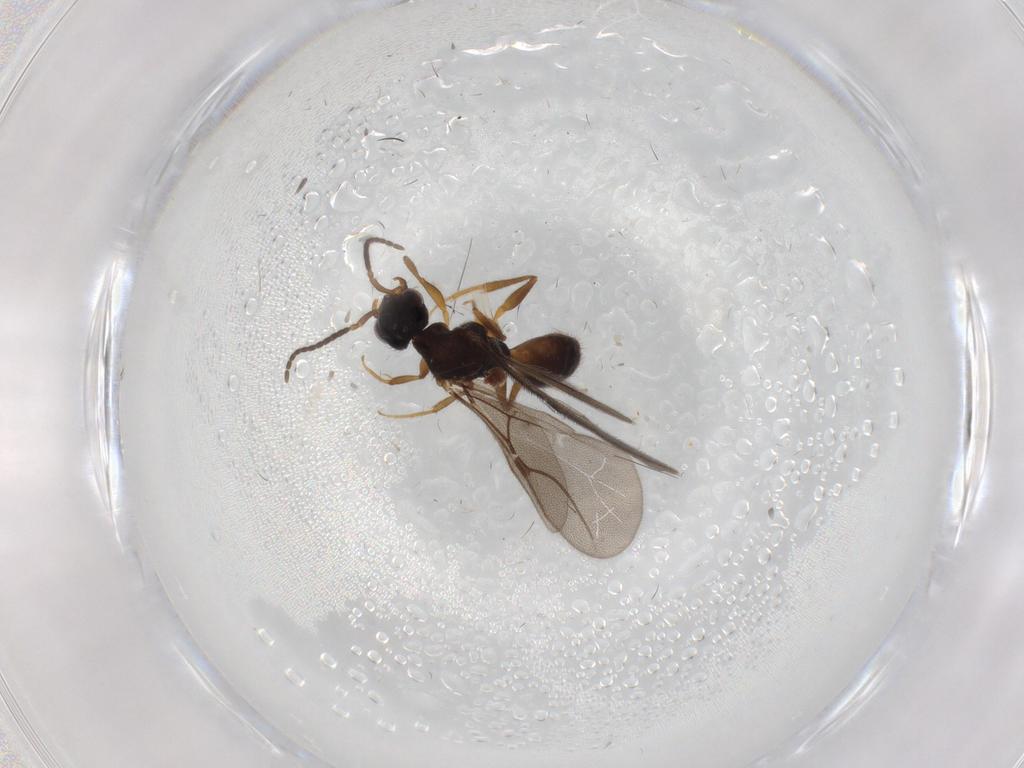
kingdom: Animalia
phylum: Arthropoda
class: Insecta
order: Hymenoptera
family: Bethylidae
